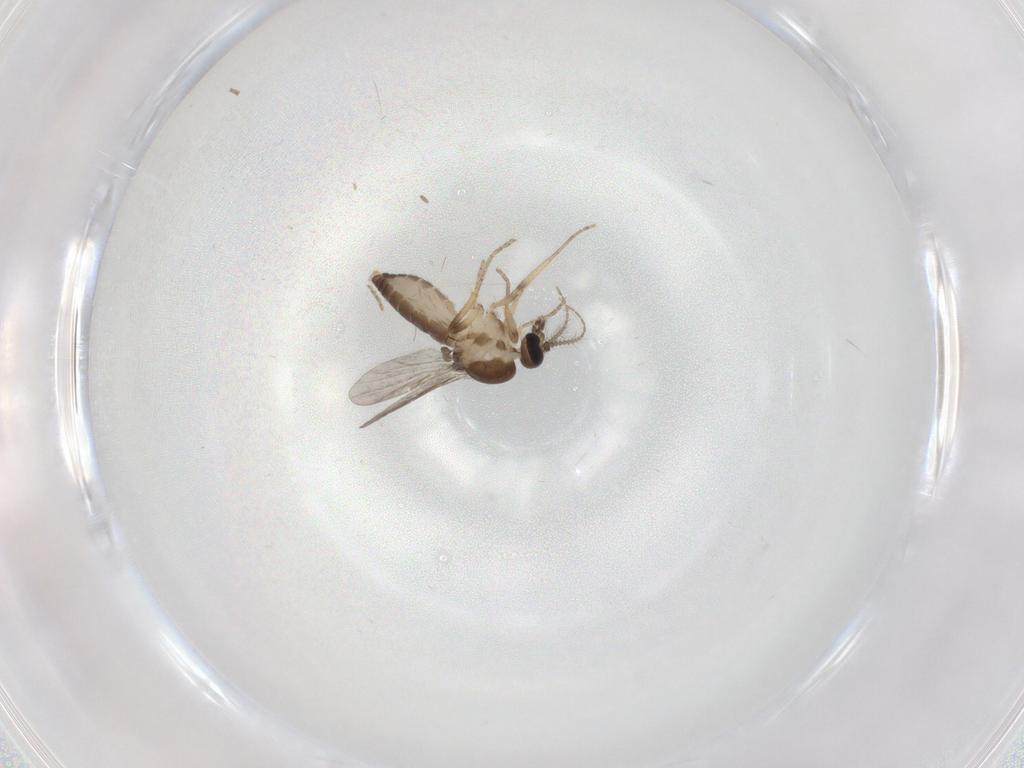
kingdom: Animalia
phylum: Arthropoda
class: Insecta
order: Diptera
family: Ceratopogonidae
